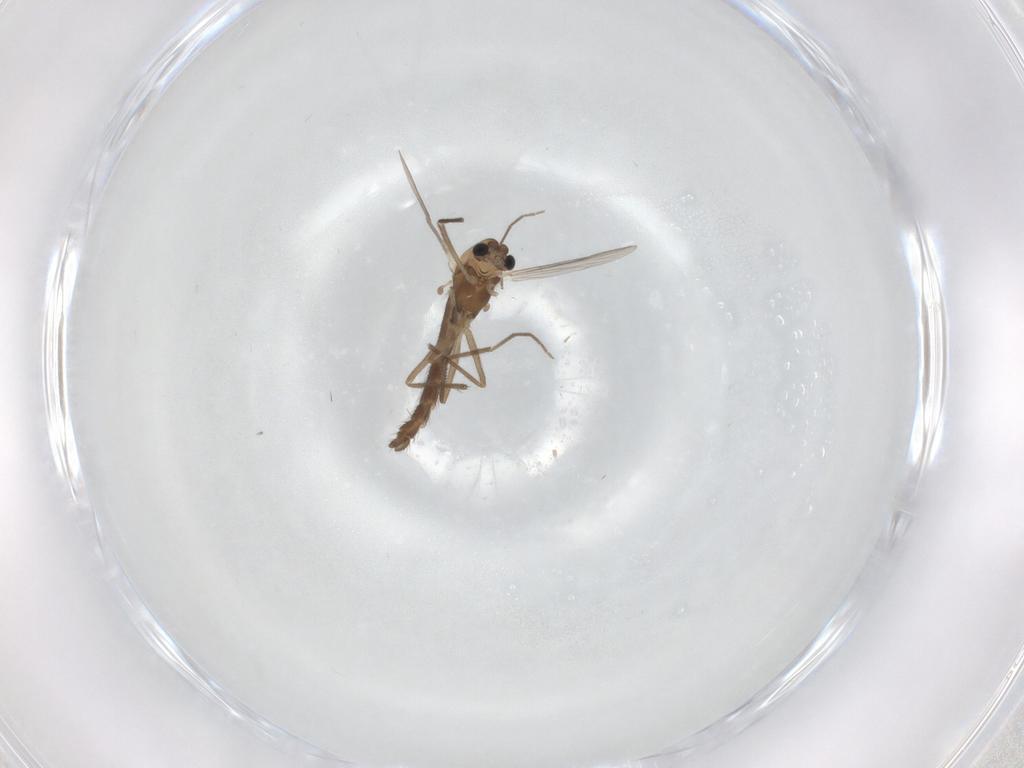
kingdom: Animalia
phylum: Arthropoda
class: Insecta
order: Diptera
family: Chironomidae
